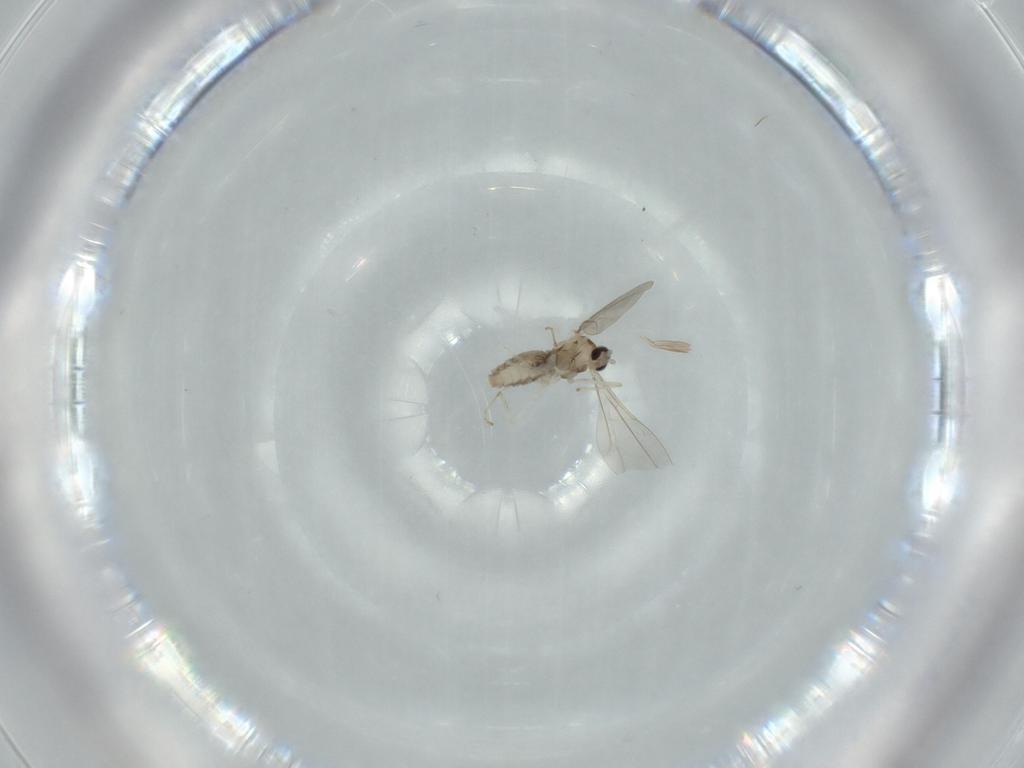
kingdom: Animalia
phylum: Arthropoda
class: Insecta
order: Diptera
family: Cecidomyiidae
